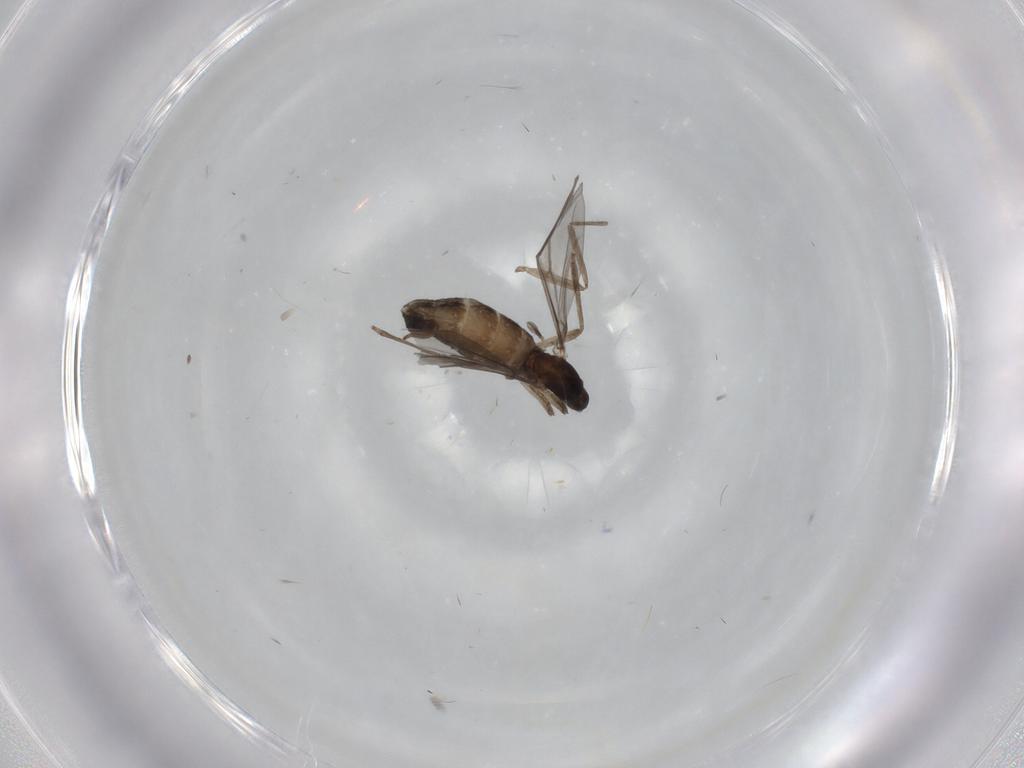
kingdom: Animalia
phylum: Arthropoda
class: Insecta
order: Diptera
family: Cecidomyiidae
